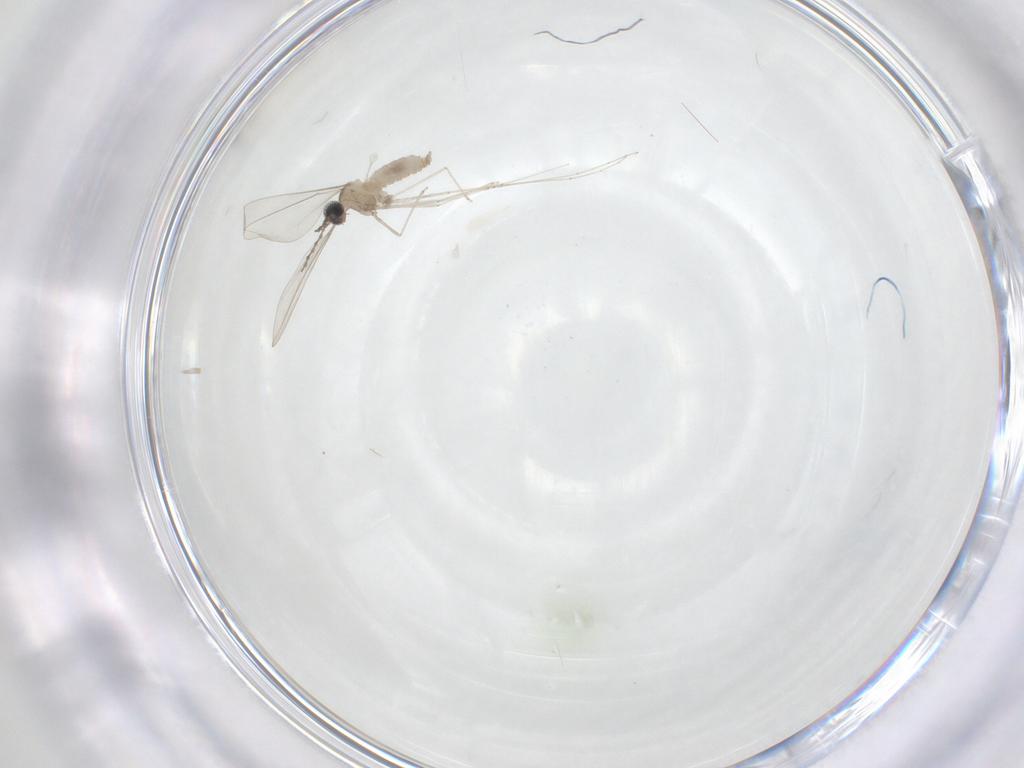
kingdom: Animalia
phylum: Arthropoda
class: Insecta
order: Diptera
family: Cecidomyiidae
